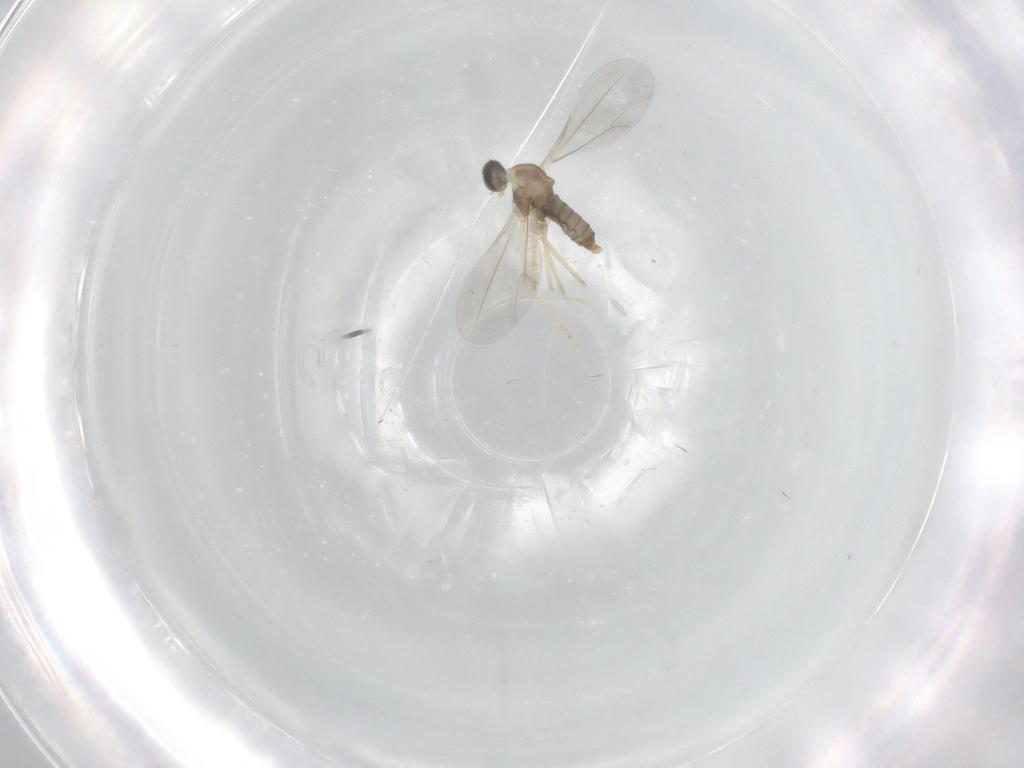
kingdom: Animalia
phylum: Arthropoda
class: Insecta
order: Diptera
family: Cecidomyiidae
